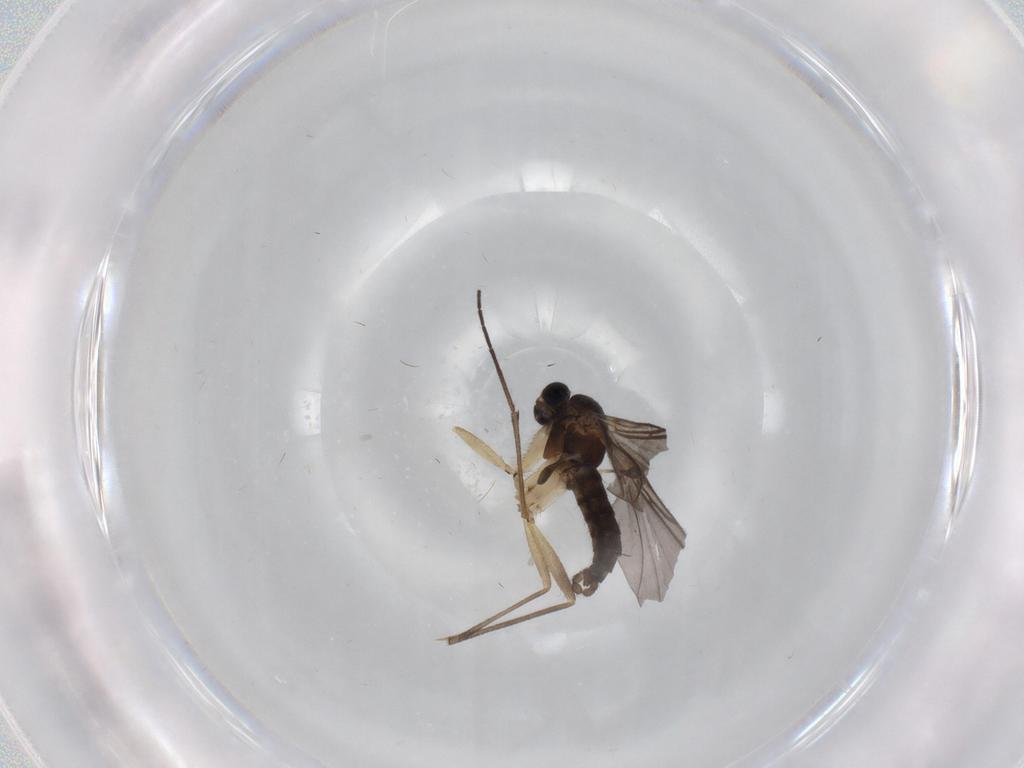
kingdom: Animalia
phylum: Arthropoda
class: Insecta
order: Diptera
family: Sciaridae
